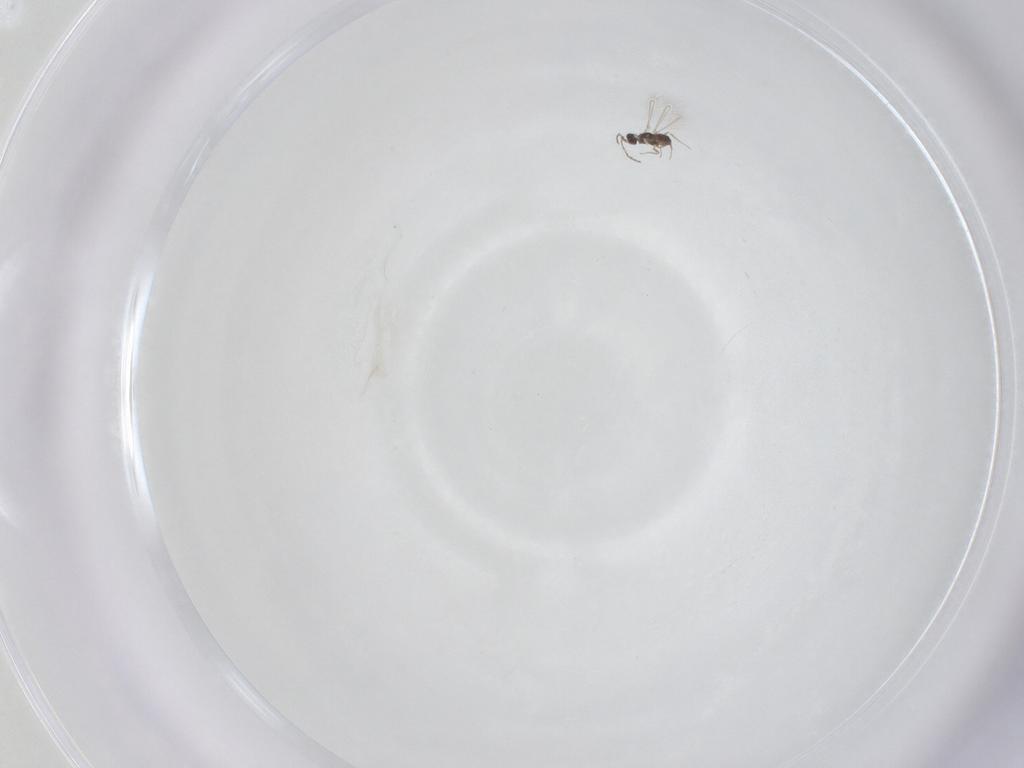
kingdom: Animalia
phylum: Arthropoda
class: Insecta
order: Hymenoptera
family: Mymaridae
